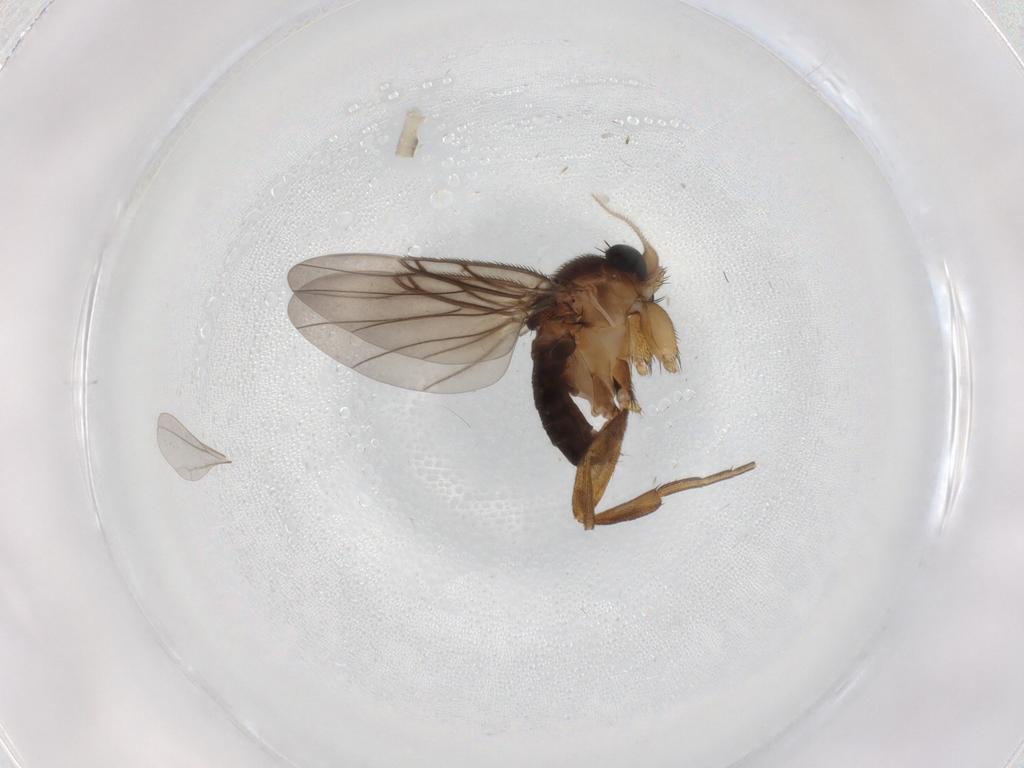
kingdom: Animalia
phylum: Arthropoda
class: Insecta
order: Diptera
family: Phoridae
